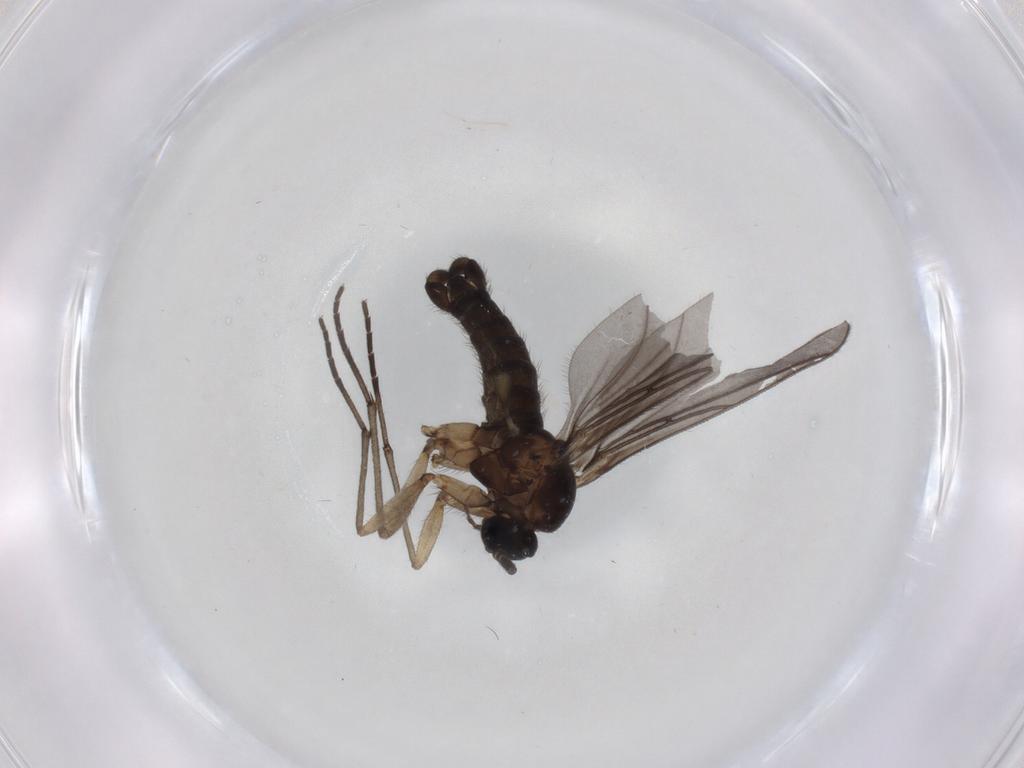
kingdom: Animalia
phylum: Arthropoda
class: Insecta
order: Diptera
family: Sciaridae
